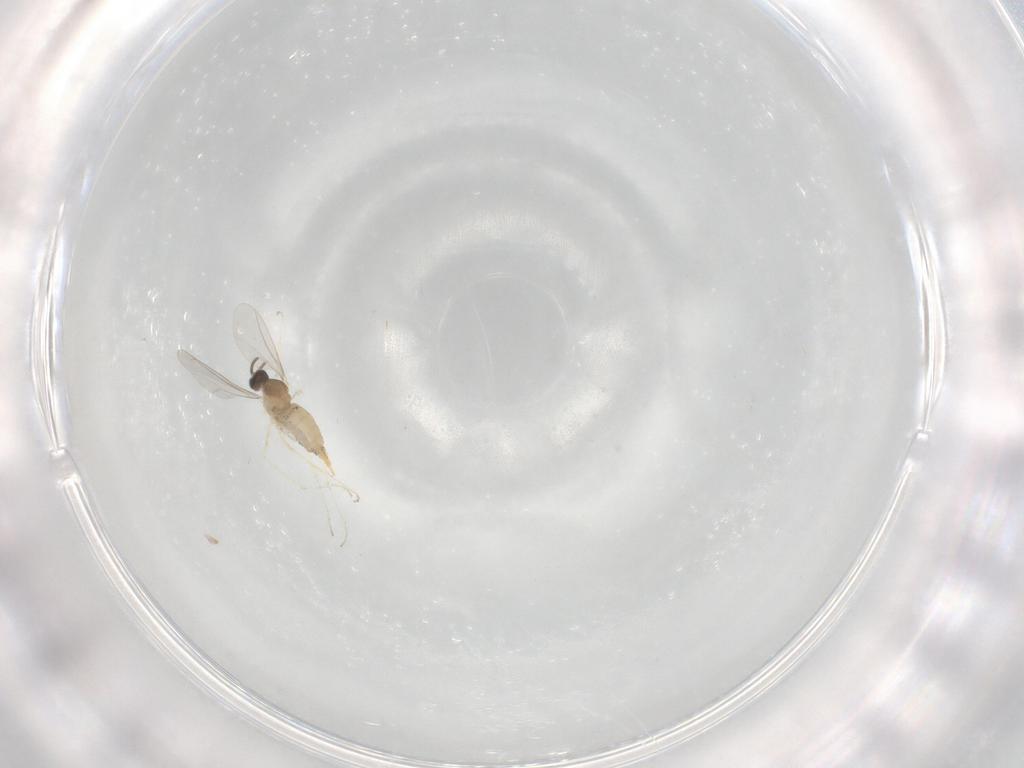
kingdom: Animalia
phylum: Arthropoda
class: Insecta
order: Diptera
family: Cecidomyiidae
